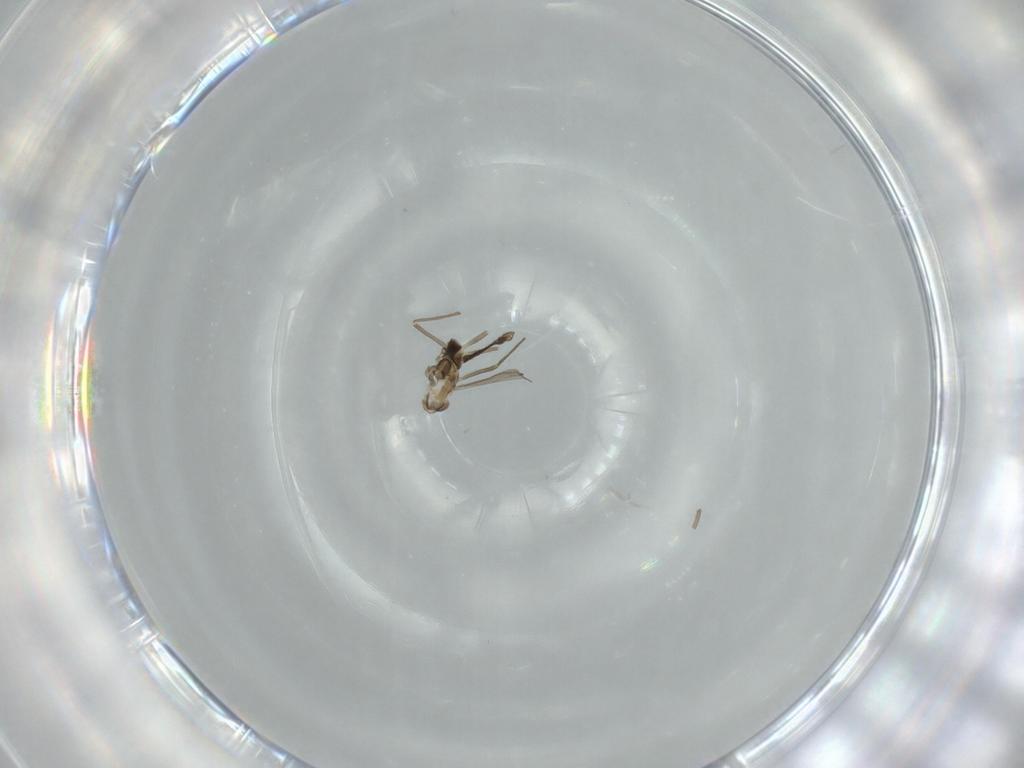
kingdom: Animalia
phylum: Arthropoda
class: Insecta
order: Diptera
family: Chironomidae
